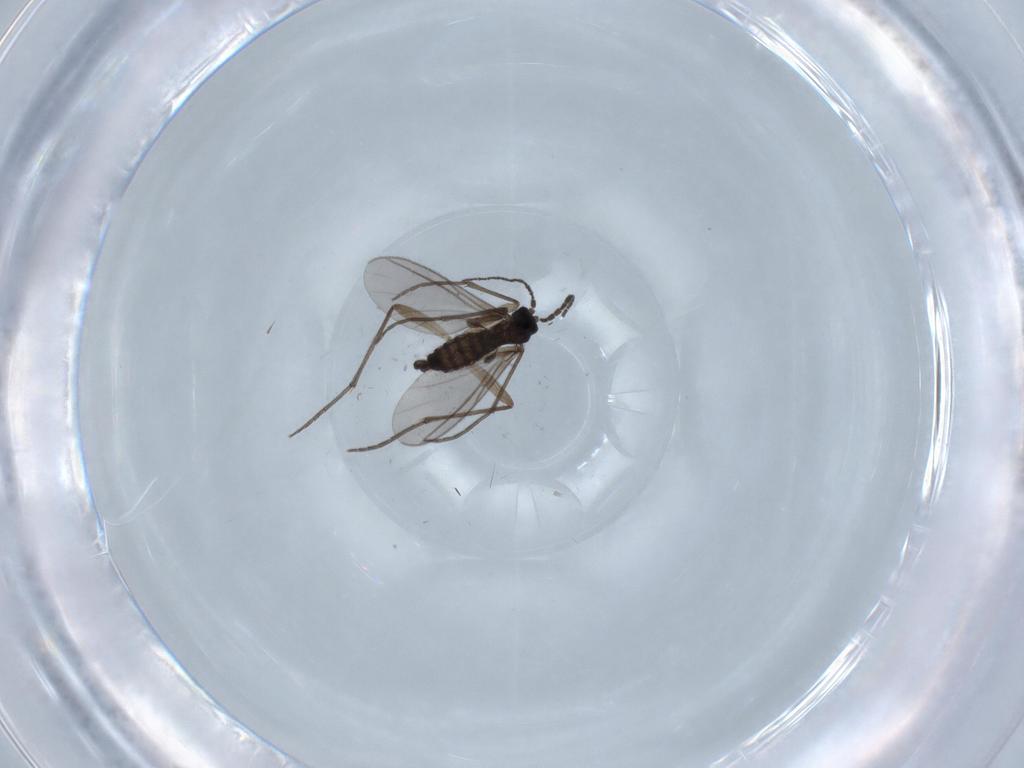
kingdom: Animalia
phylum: Arthropoda
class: Insecta
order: Diptera
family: Sciaridae
